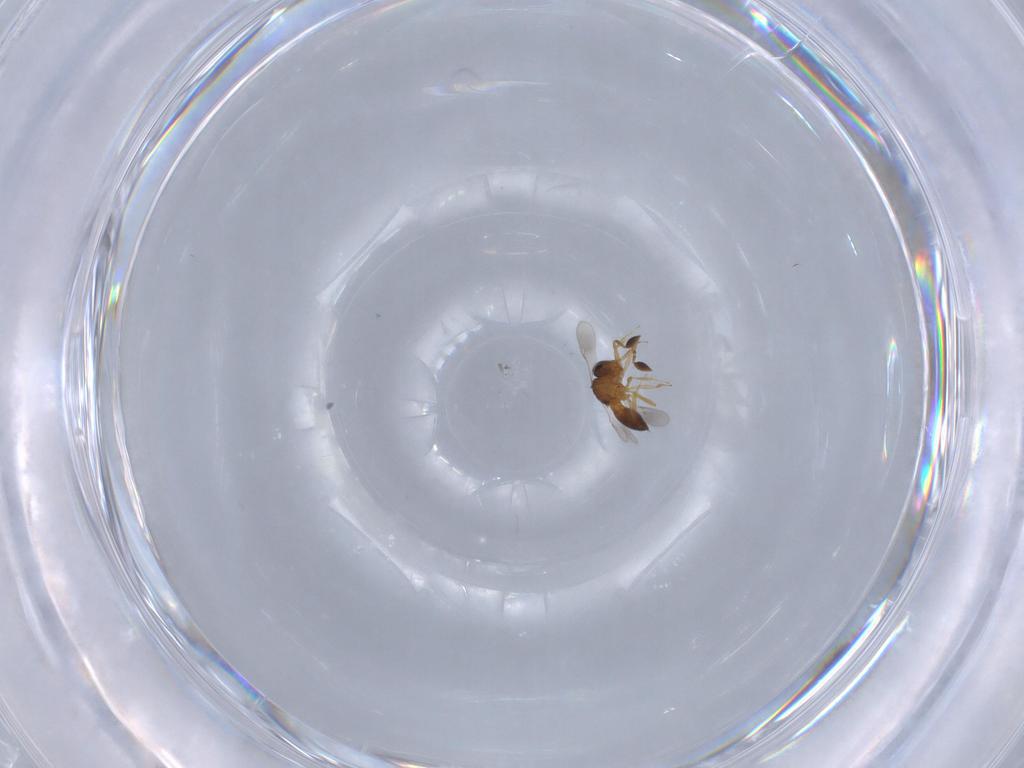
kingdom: Animalia
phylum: Arthropoda
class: Insecta
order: Hymenoptera
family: Scelionidae
